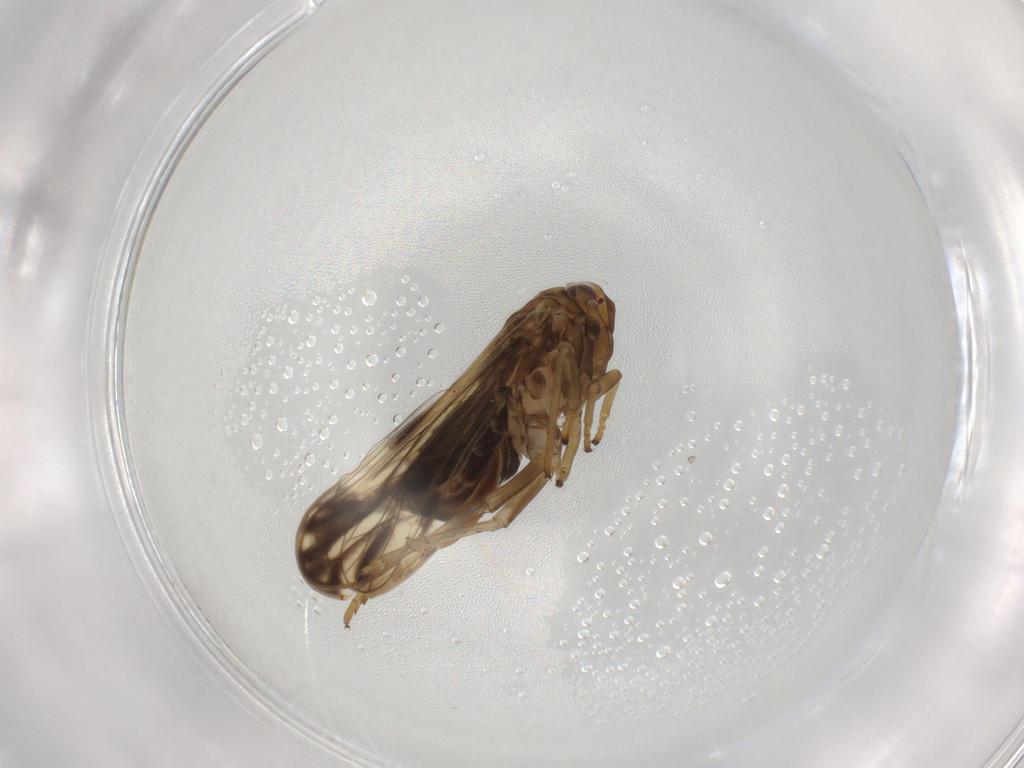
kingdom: Animalia
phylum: Arthropoda
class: Insecta
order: Hemiptera
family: Delphacidae
